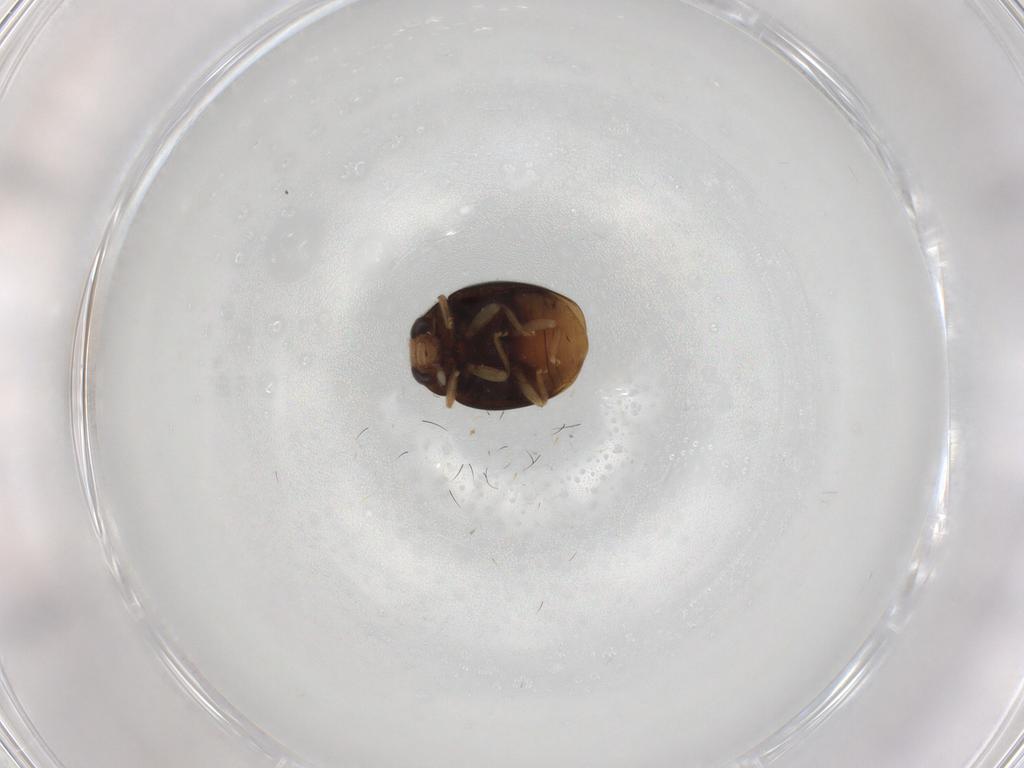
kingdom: Animalia
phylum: Arthropoda
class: Insecta
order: Coleoptera
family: Coccinellidae
